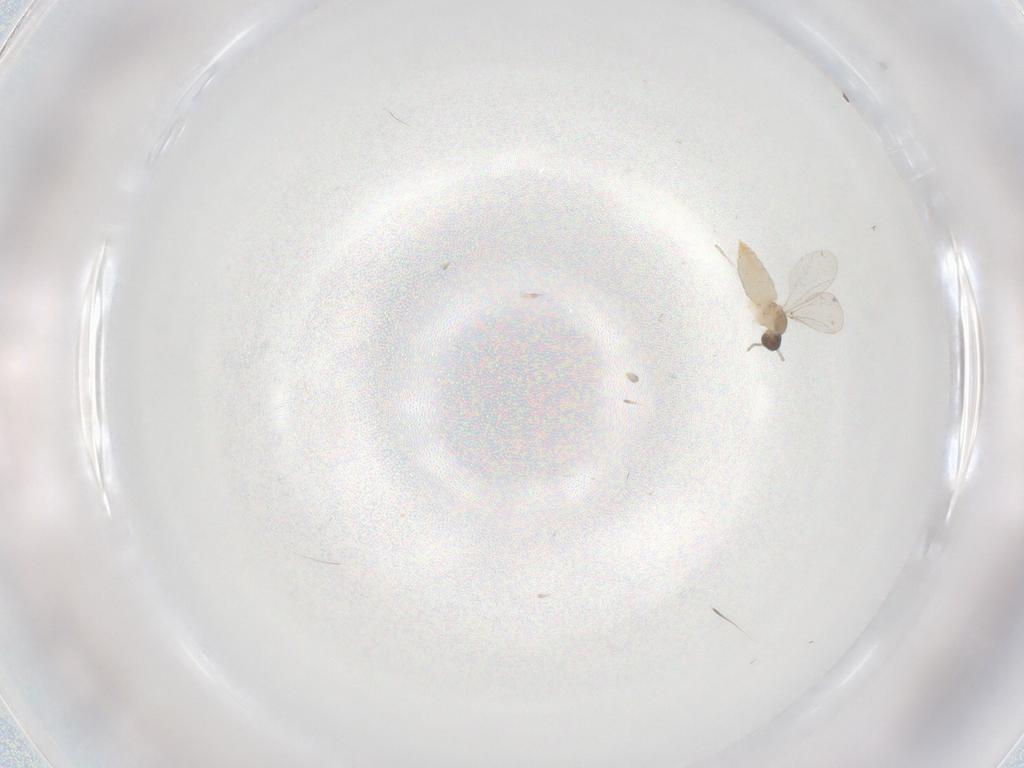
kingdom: Animalia
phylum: Arthropoda
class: Insecta
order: Diptera
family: Cecidomyiidae
